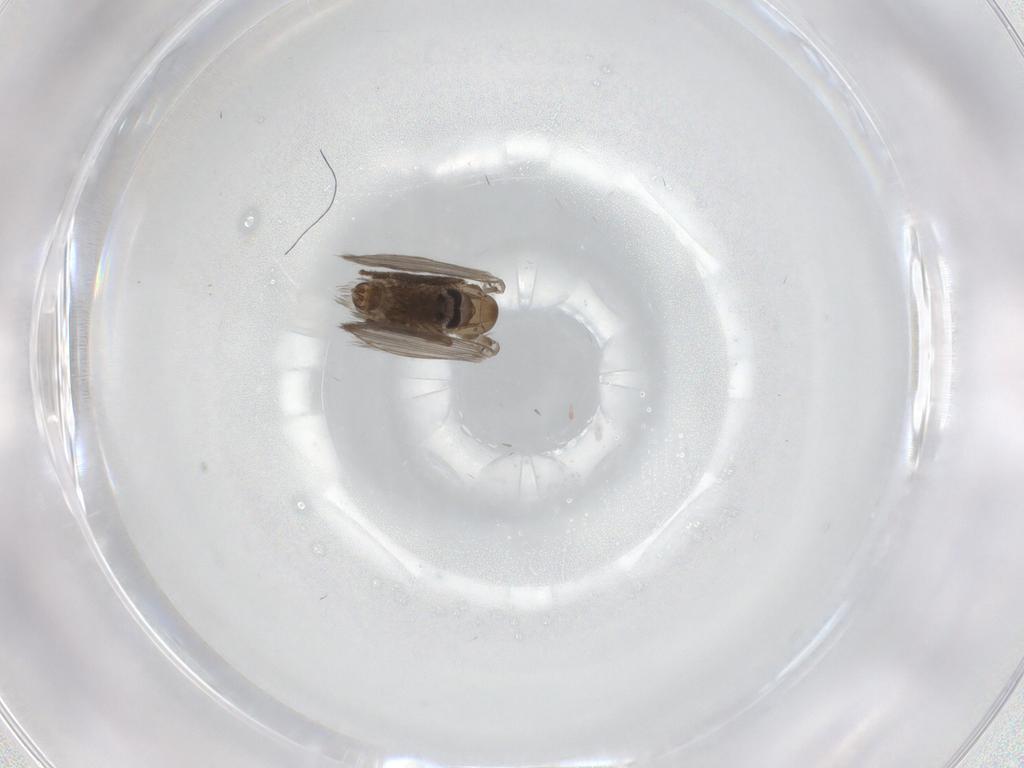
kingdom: Animalia
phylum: Arthropoda
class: Insecta
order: Diptera
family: Psychodidae
